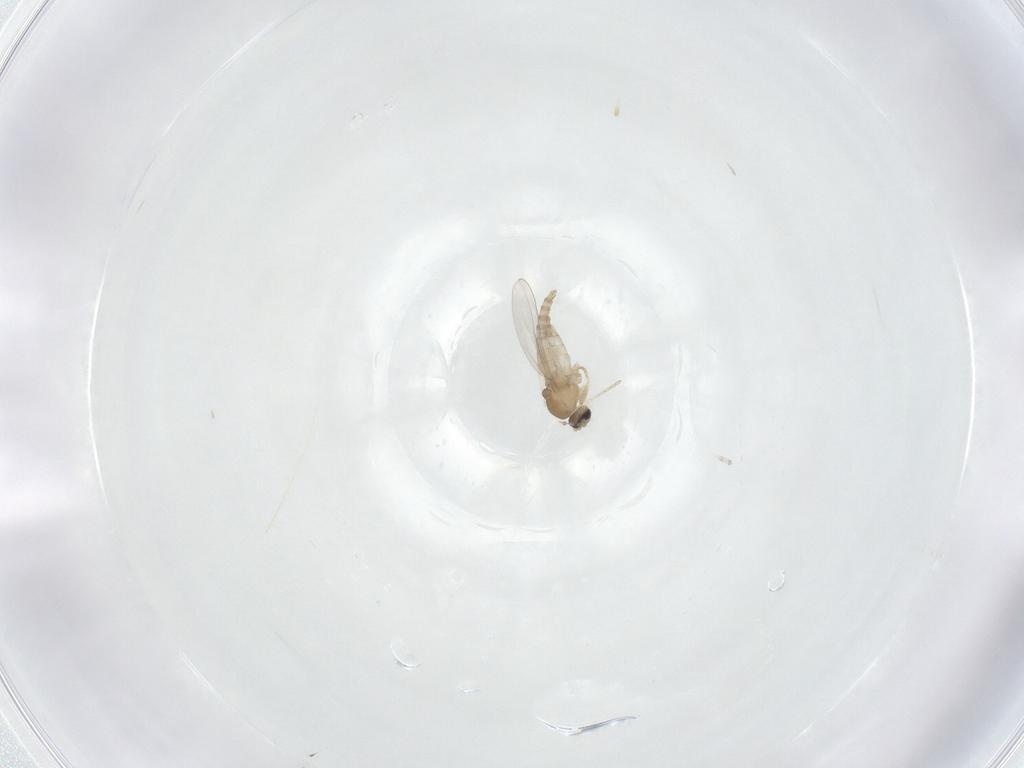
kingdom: Animalia
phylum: Arthropoda
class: Insecta
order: Diptera
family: Cecidomyiidae
